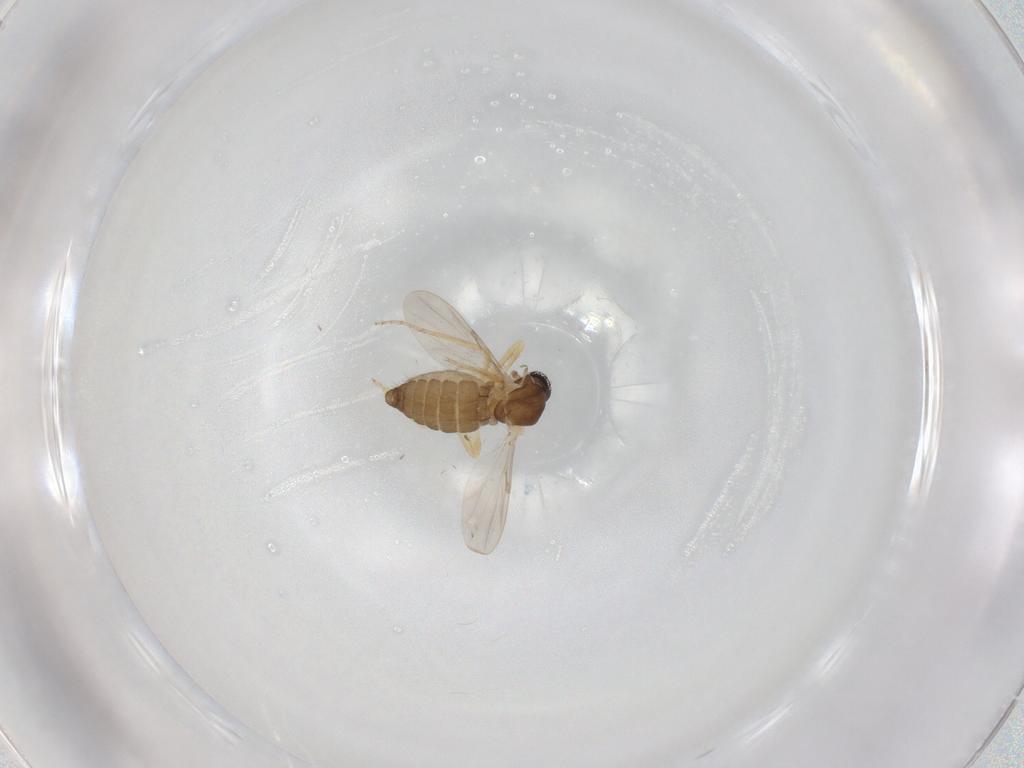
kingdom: Animalia
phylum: Arthropoda
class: Insecta
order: Diptera
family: Ceratopogonidae
